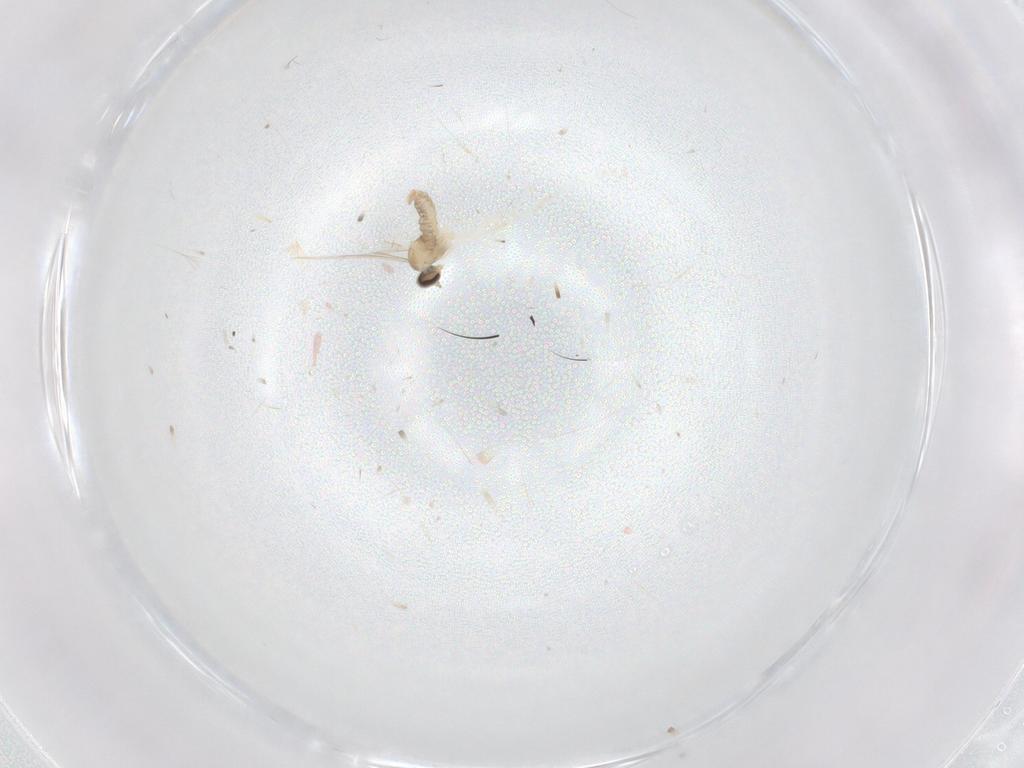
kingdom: Animalia
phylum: Arthropoda
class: Insecta
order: Diptera
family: Cecidomyiidae
